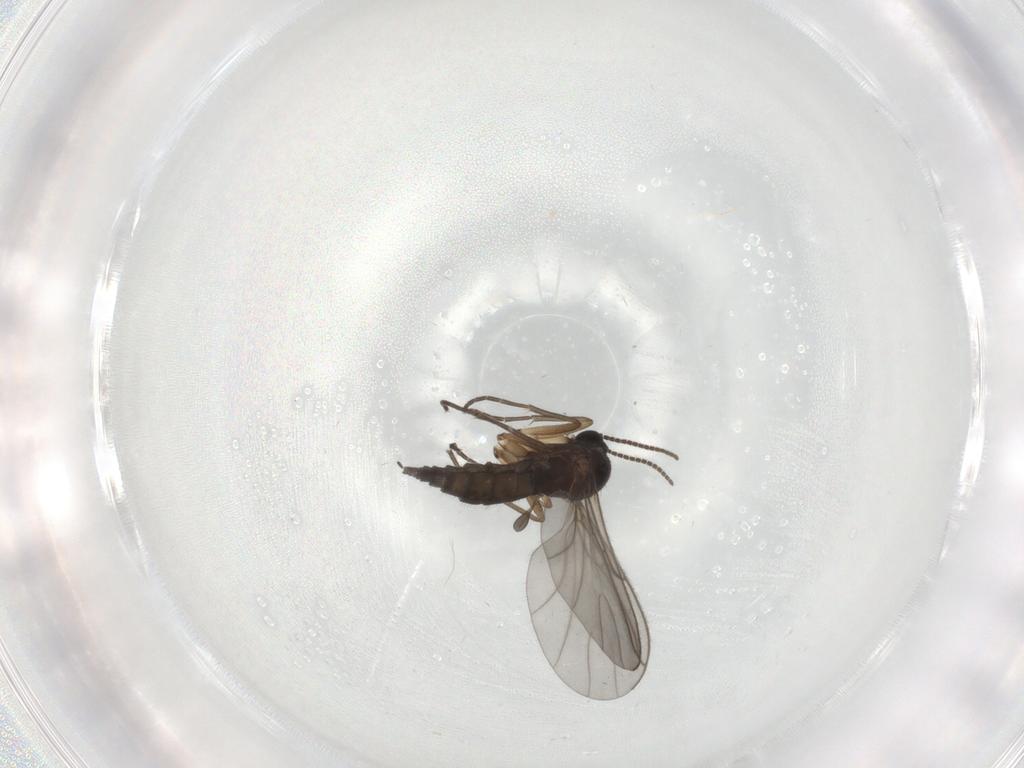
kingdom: Animalia
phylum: Arthropoda
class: Insecta
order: Diptera
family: Sciaridae
